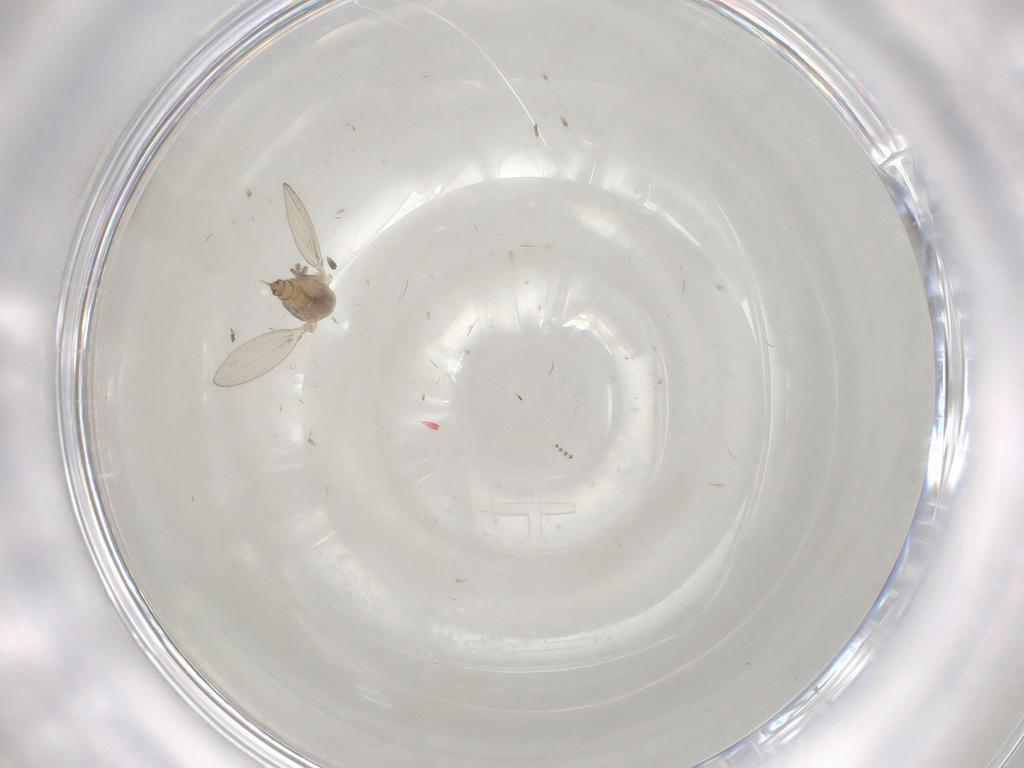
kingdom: Animalia
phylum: Arthropoda
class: Insecta
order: Diptera
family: Psychodidae
